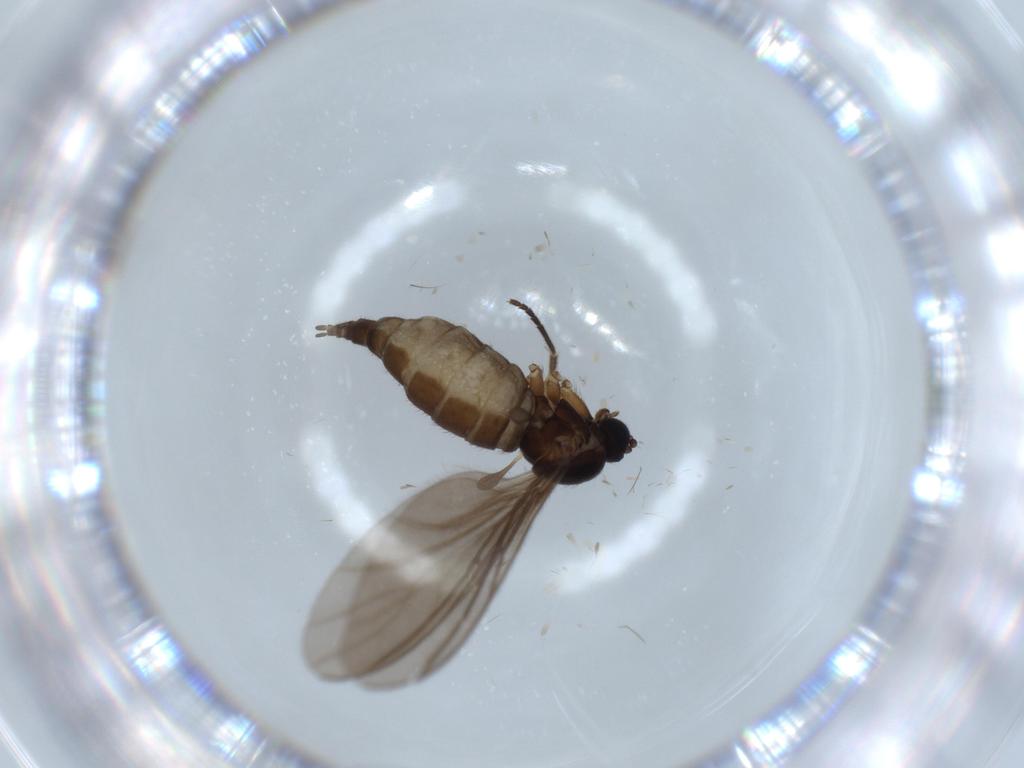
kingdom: Animalia
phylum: Arthropoda
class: Insecta
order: Diptera
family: Sciaridae
